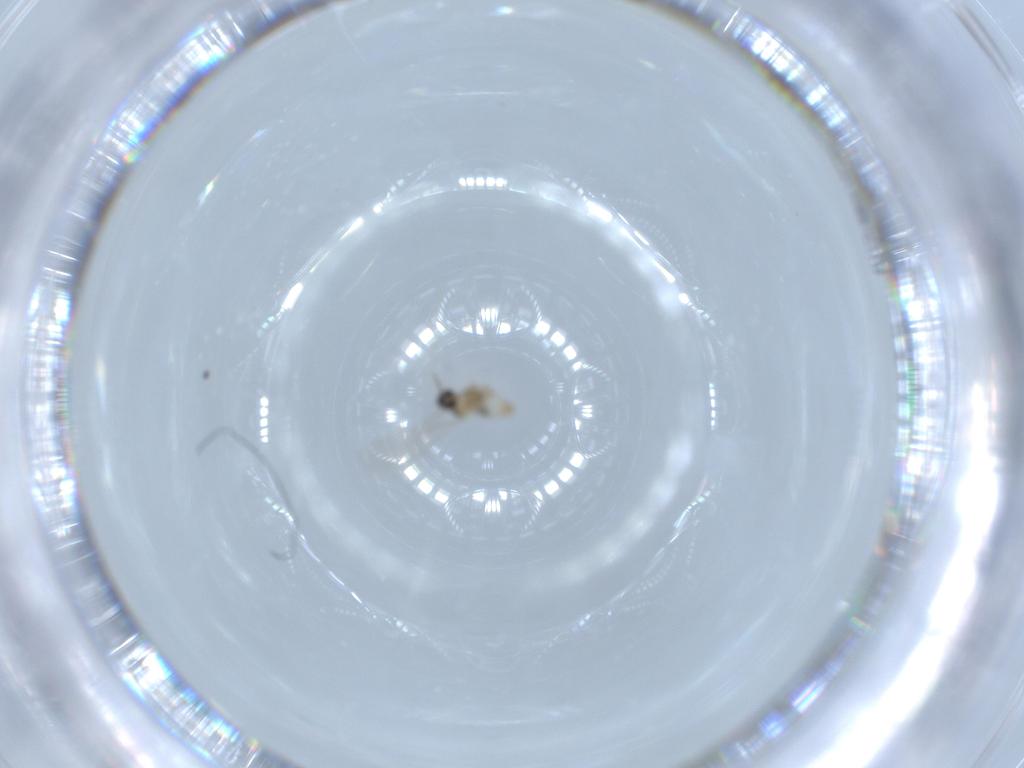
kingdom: Animalia
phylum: Arthropoda
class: Insecta
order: Diptera
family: Cecidomyiidae
